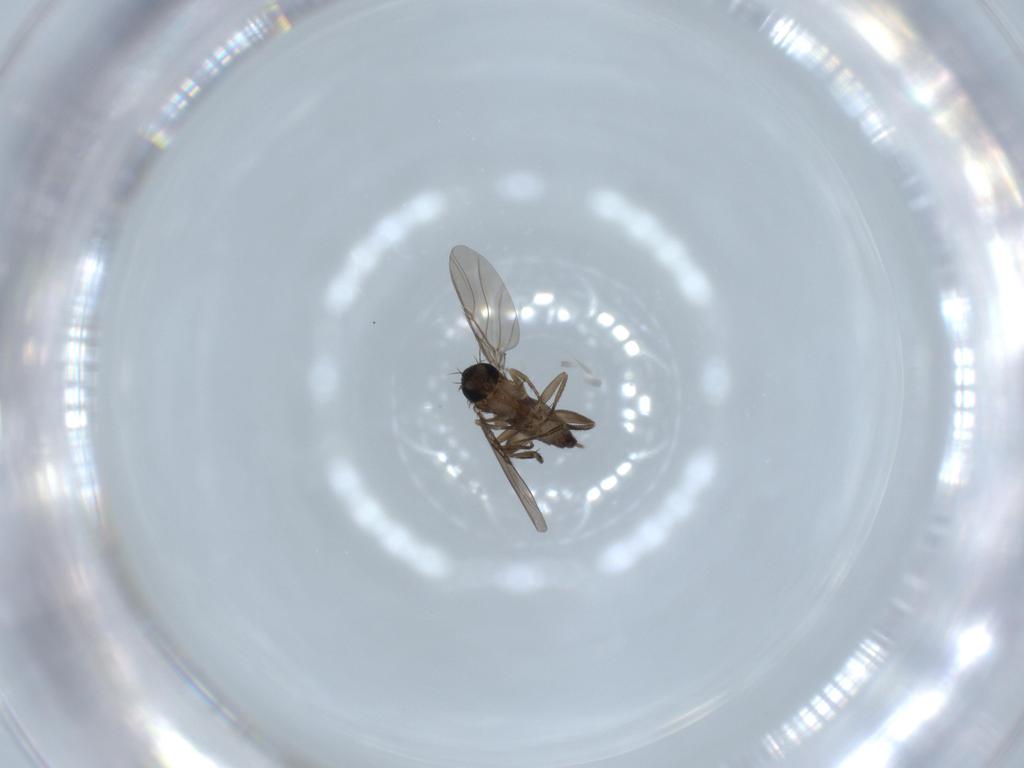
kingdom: Animalia
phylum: Arthropoda
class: Insecta
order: Diptera
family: Phoridae
